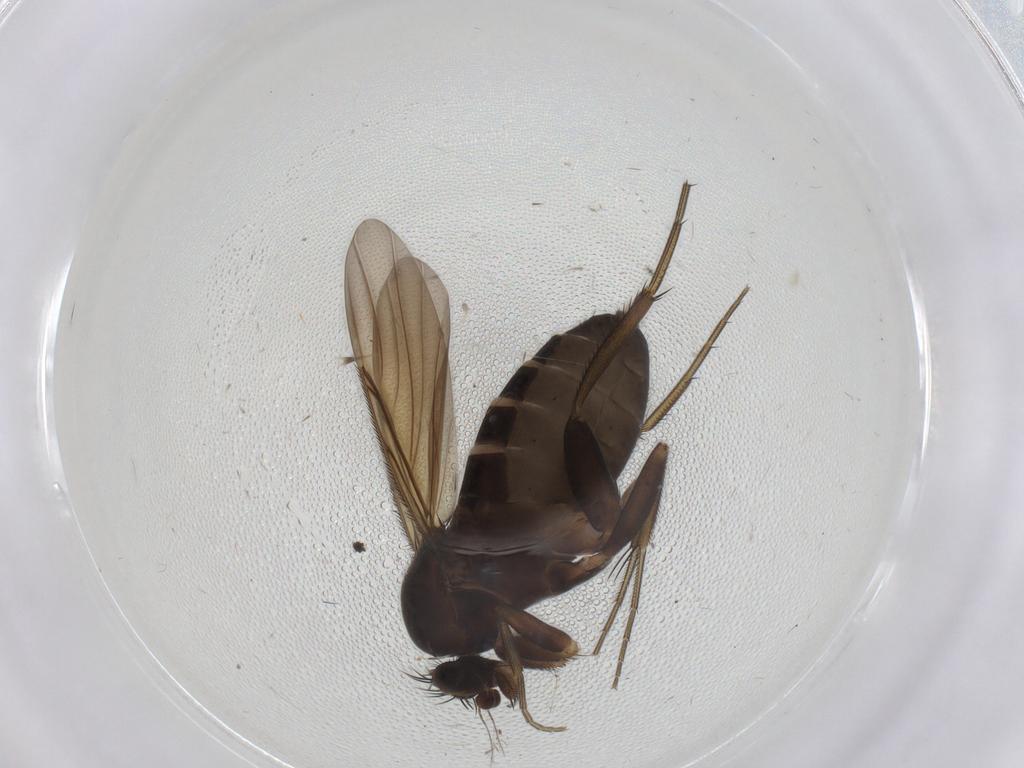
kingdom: Animalia
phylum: Arthropoda
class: Insecta
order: Diptera
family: Phoridae
